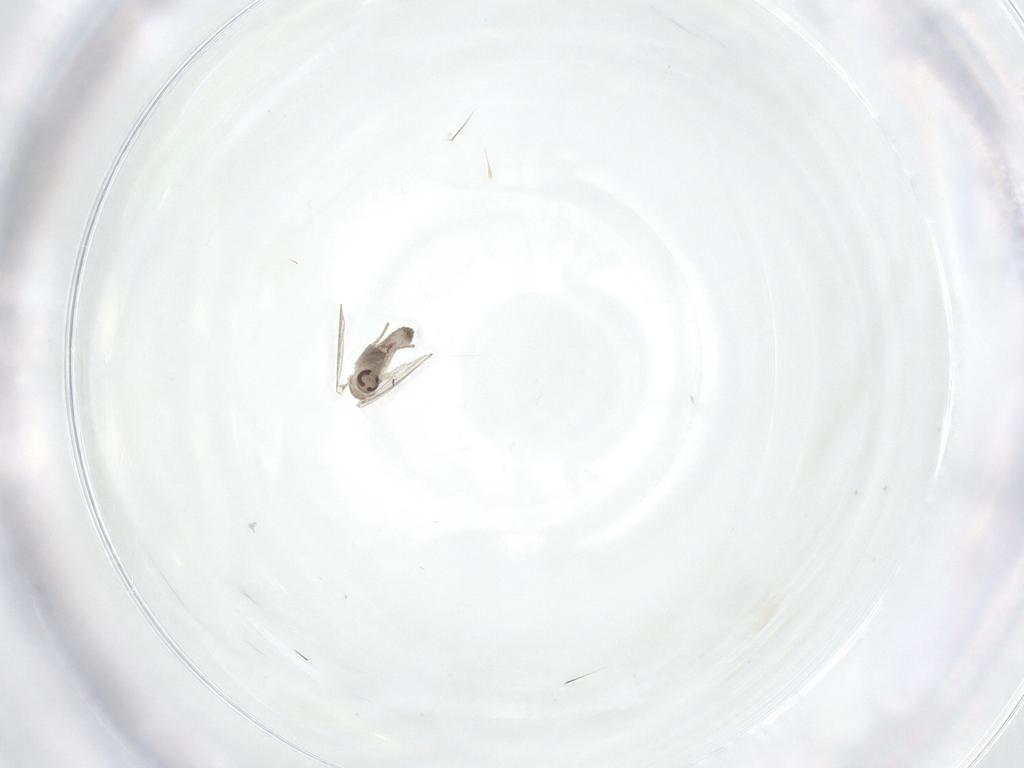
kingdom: Animalia
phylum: Arthropoda
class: Insecta
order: Diptera
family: Psychodidae
